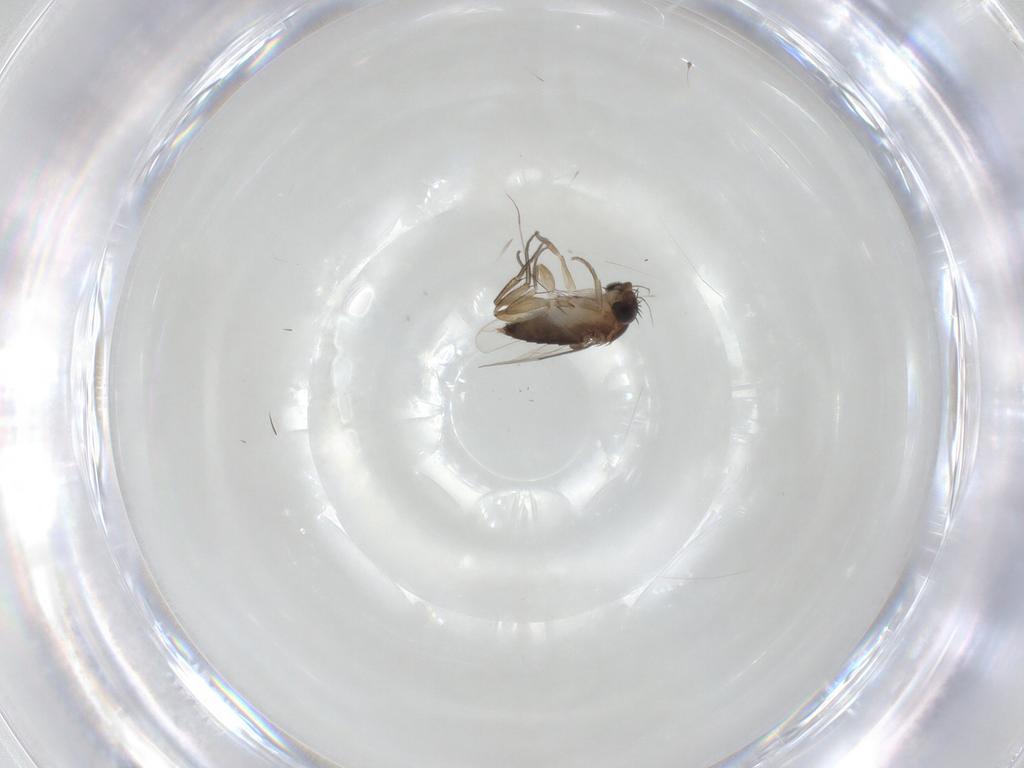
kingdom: Animalia
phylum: Arthropoda
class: Insecta
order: Diptera
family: Phoridae
